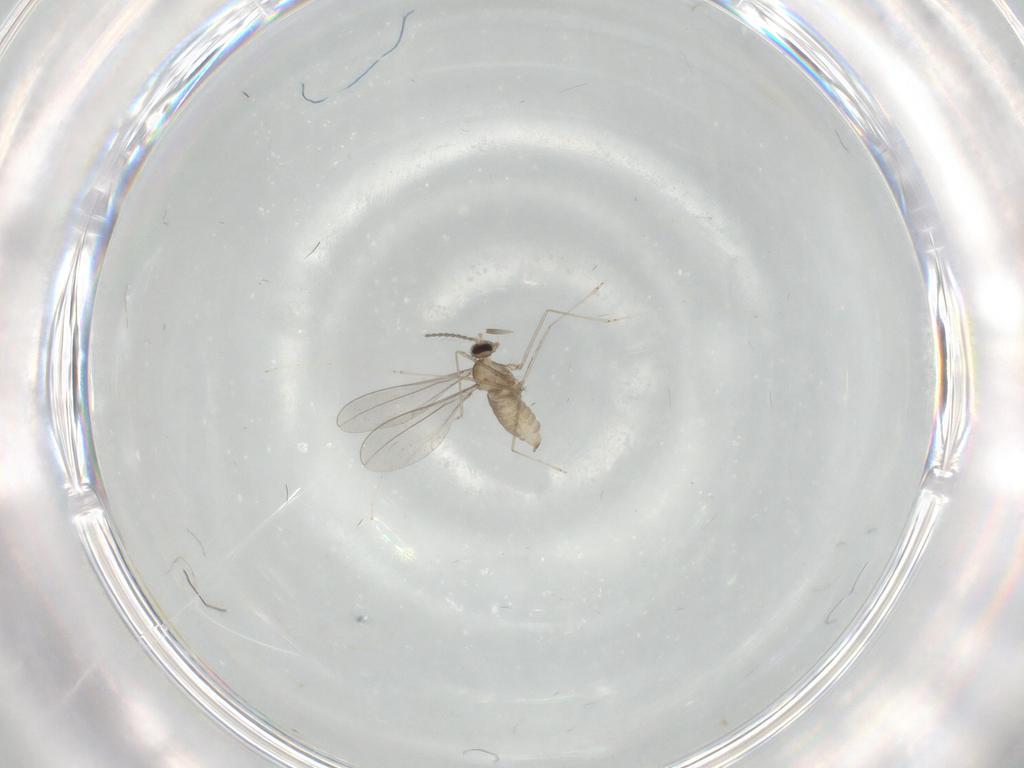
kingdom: Animalia
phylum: Arthropoda
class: Insecta
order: Diptera
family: Cecidomyiidae
